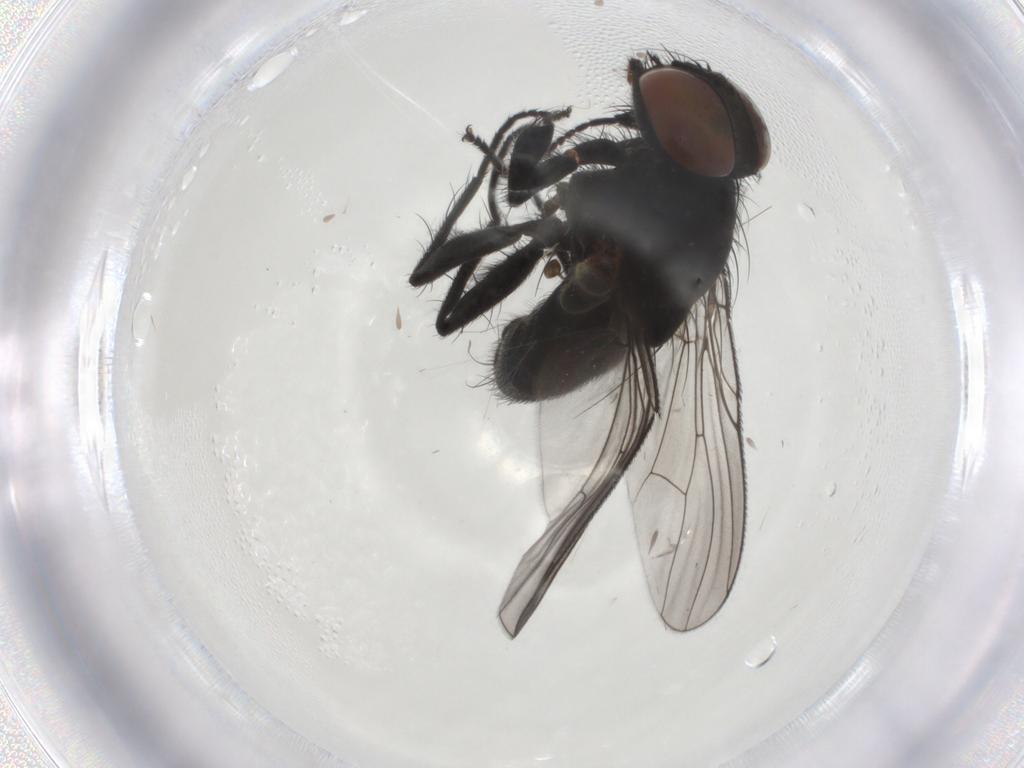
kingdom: Animalia
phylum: Arthropoda
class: Insecta
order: Diptera
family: Muscidae
